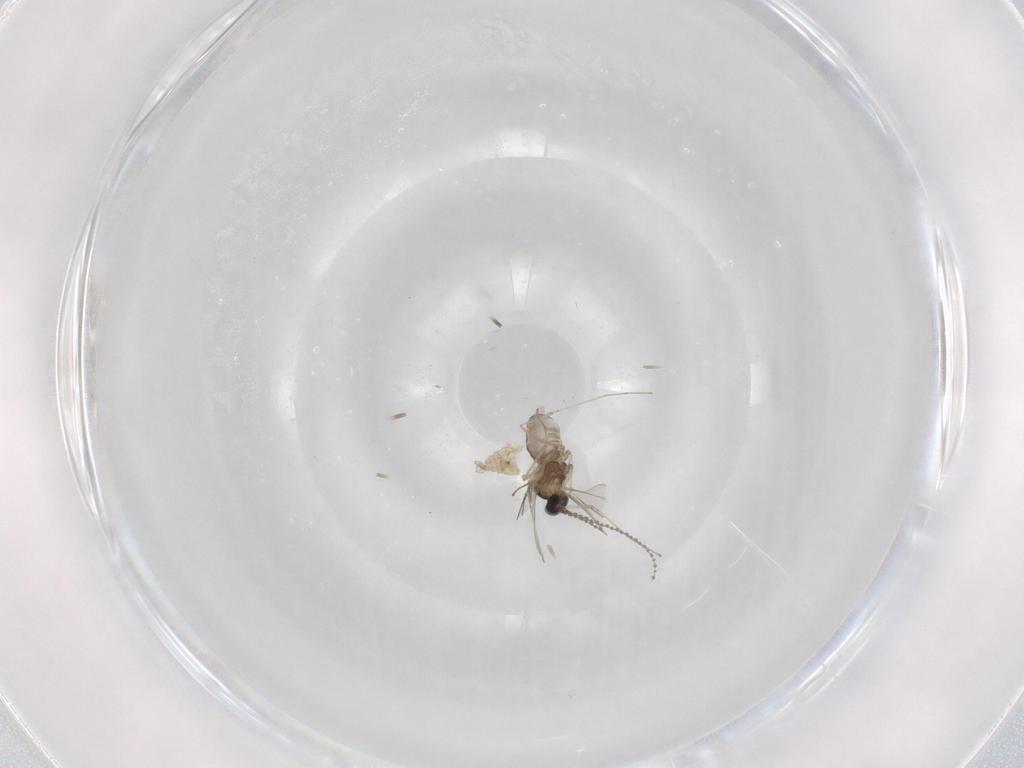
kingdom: Animalia
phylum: Arthropoda
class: Insecta
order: Diptera
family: Cecidomyiidae
